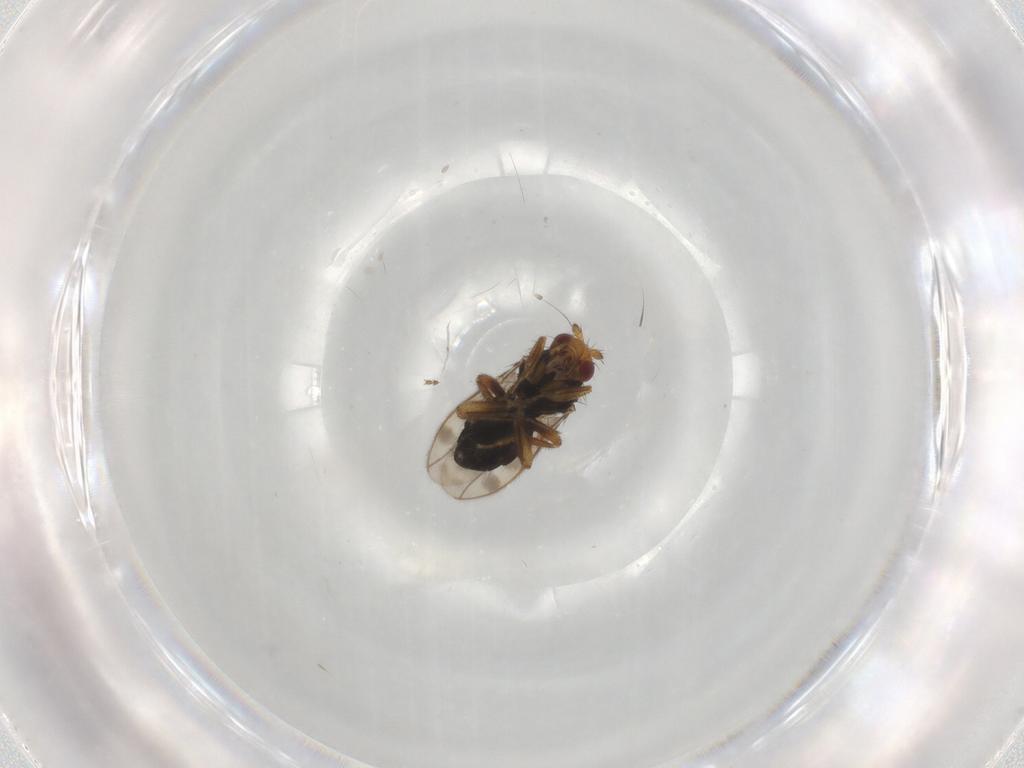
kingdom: Animalia
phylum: Arthropoda
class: Insecta
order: Diptera
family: Sphaeroceridae
